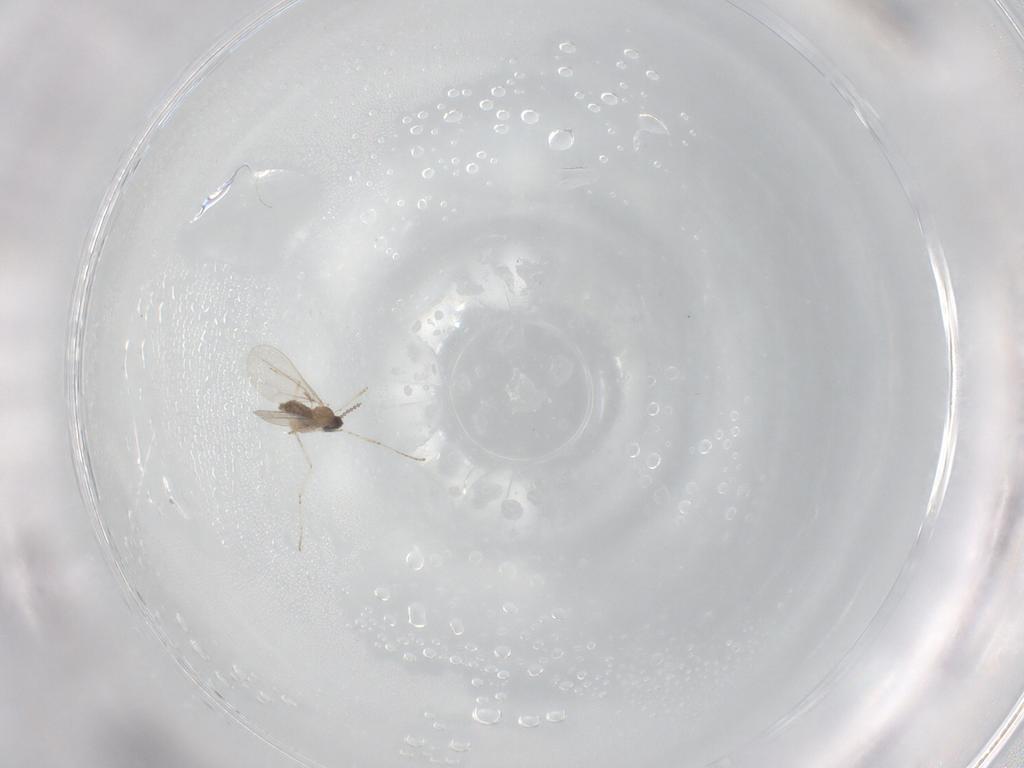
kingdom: Animalia
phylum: Arthropoda
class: Insecta
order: Diptera
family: Cecidomyiidae
